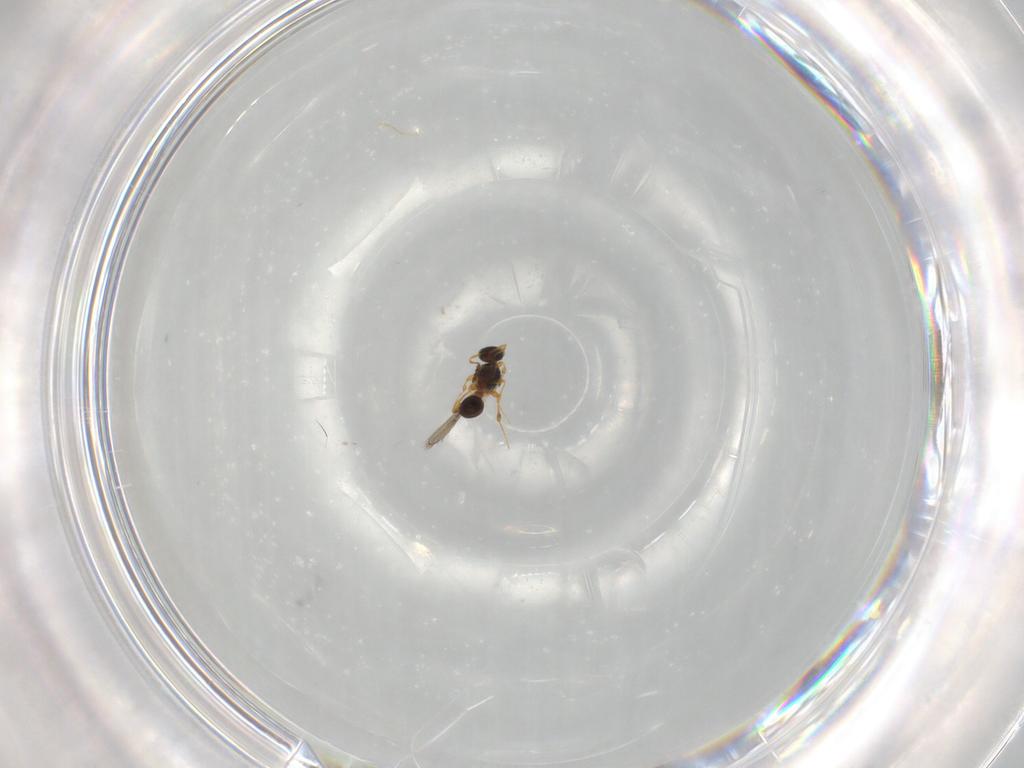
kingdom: Animalia
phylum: Arthropoda
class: Insecta
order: Hymenoptera
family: Platygastridae
